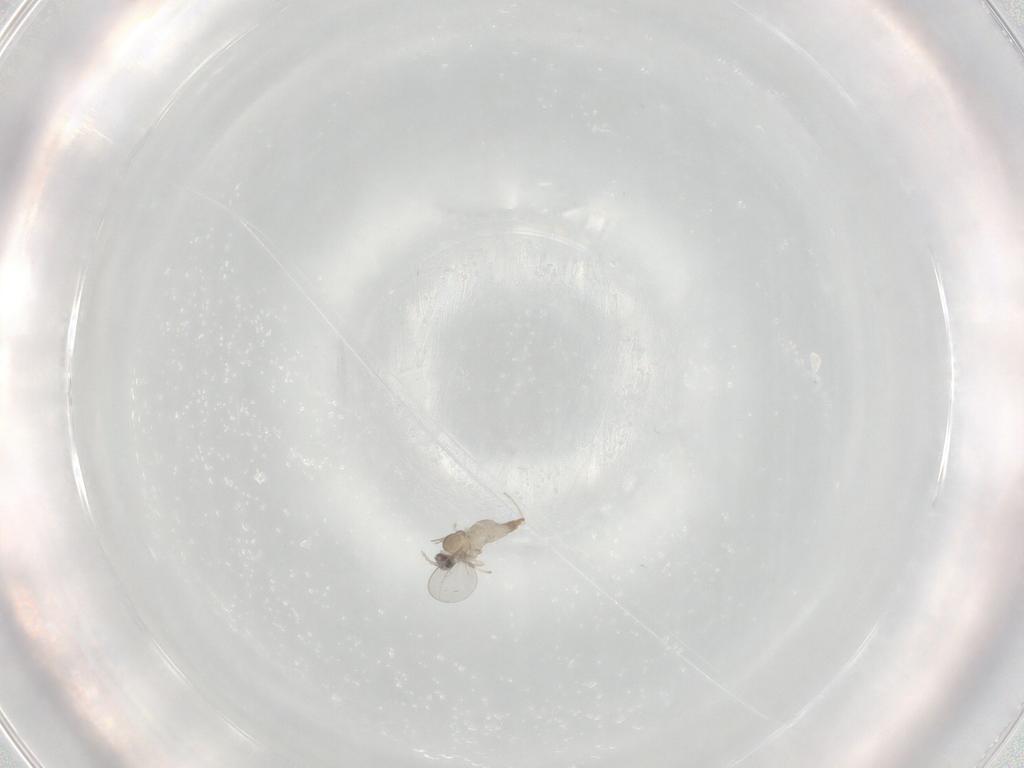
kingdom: Animalia
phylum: Arthropoda
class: Insecta
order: Diptera
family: Cecidomyiidae
